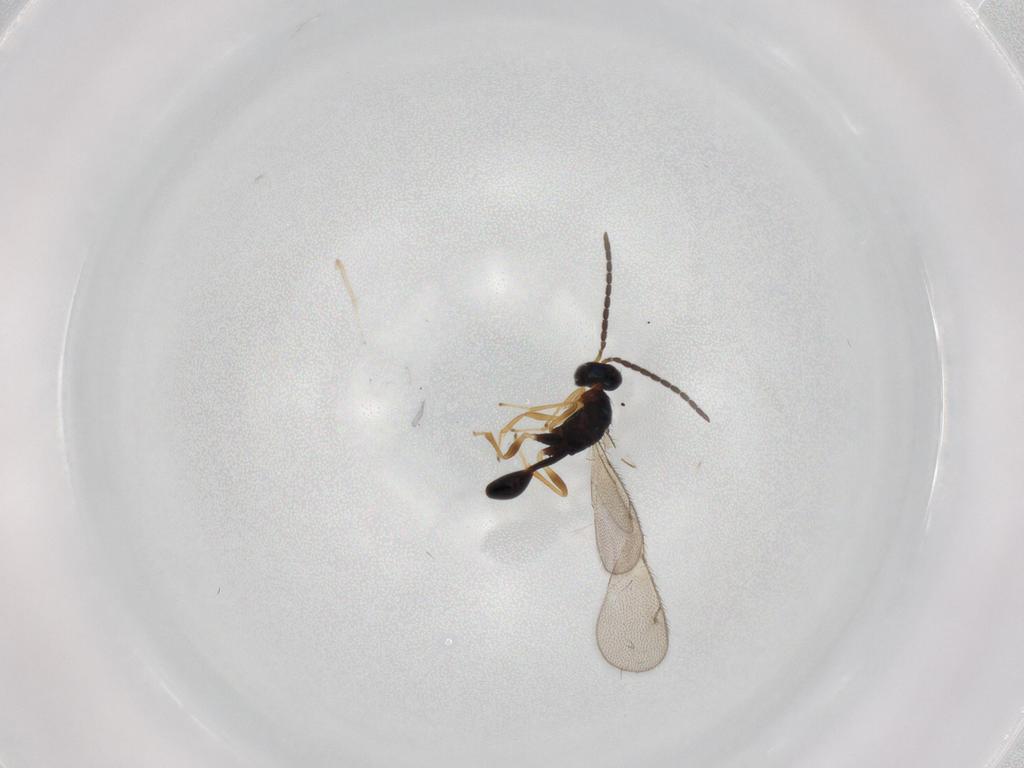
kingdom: Animalia
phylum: Arthropoda
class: Insecta
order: Hymenoptera
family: Diparidae
